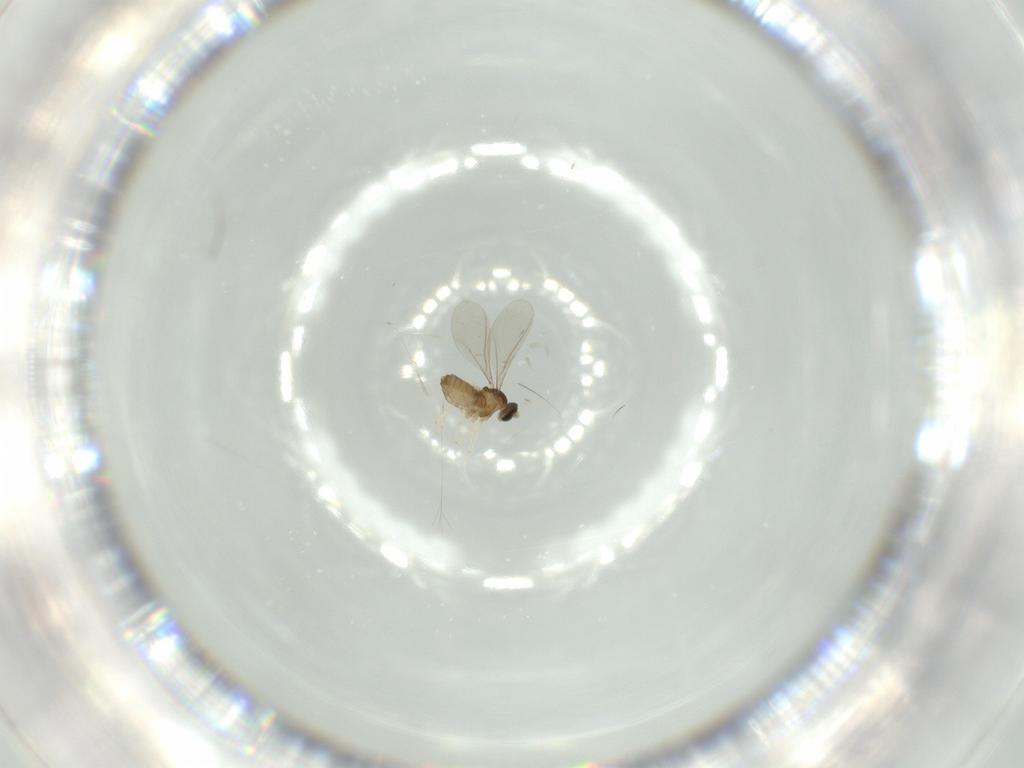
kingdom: Animalia
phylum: Arthropoda
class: Insecta
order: Diptera
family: Cecidomyiidae
